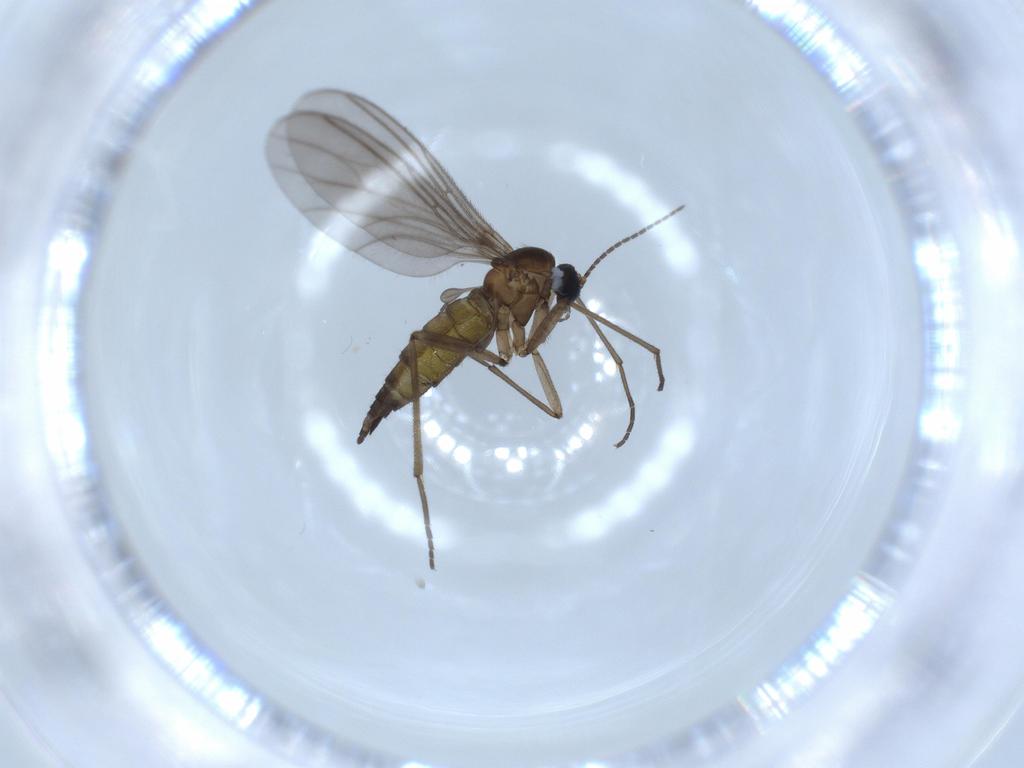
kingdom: Animalia
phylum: Arthropoda
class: Insecta
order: Diptera
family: Sciaridae
